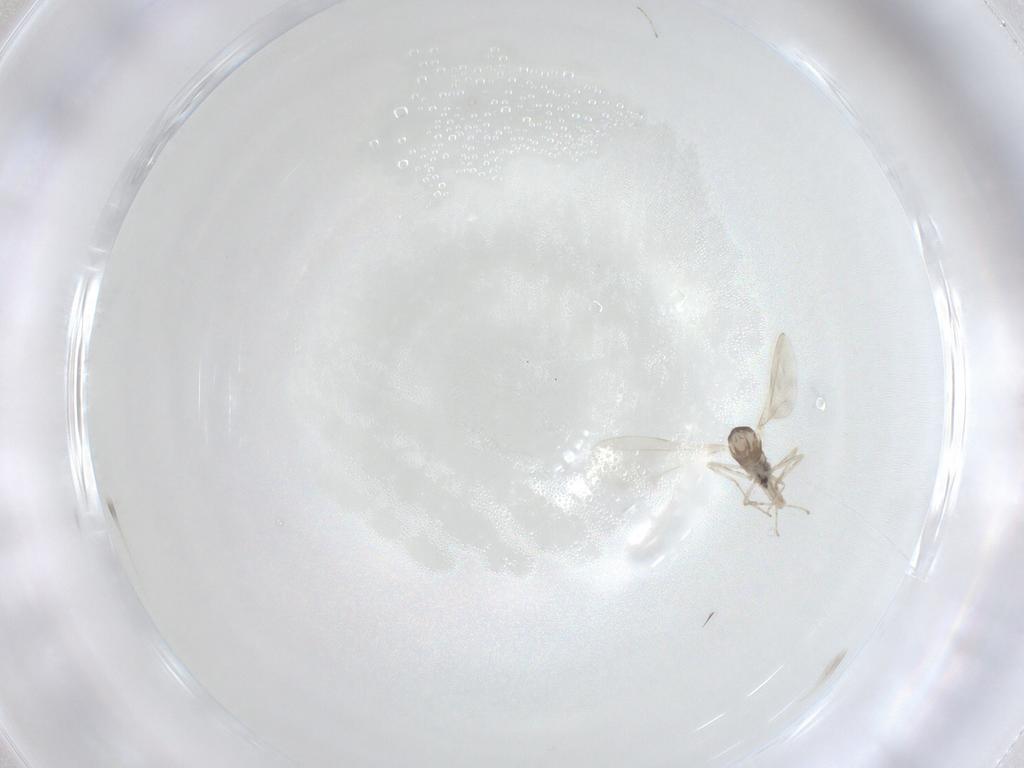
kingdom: Animalia
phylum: Arthropoda
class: Insecta
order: Diptera
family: Cecidomyiidae
